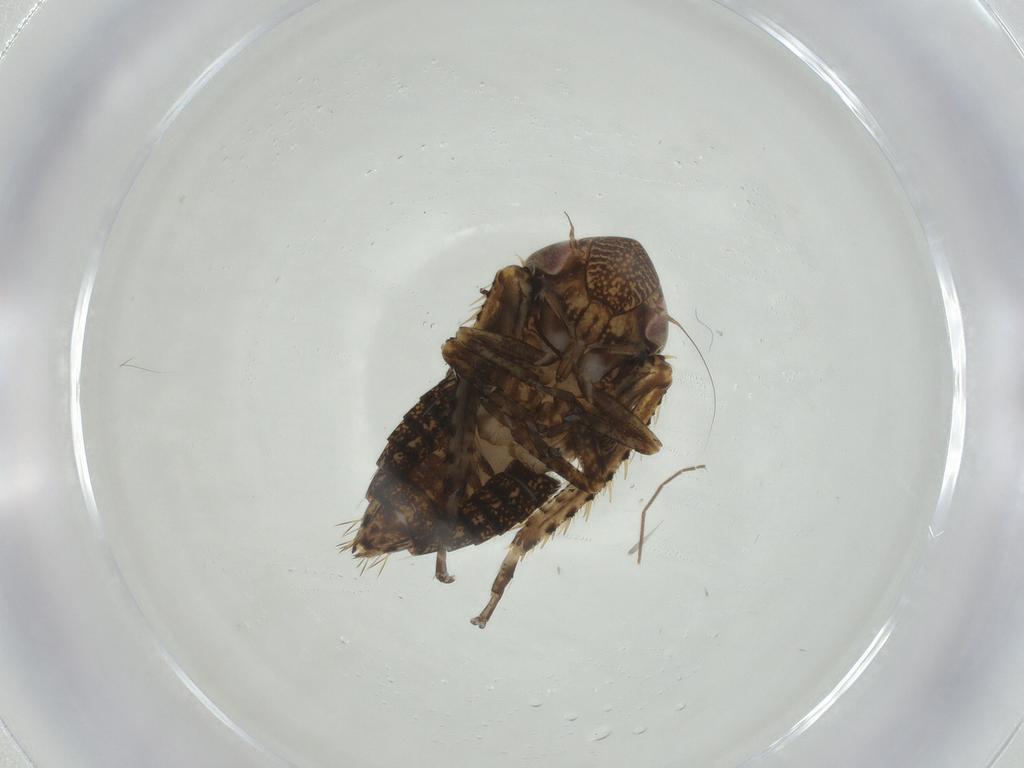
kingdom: Animalia
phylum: Arthropoda
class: Insecta
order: Hemiptera
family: Cicadellidae
